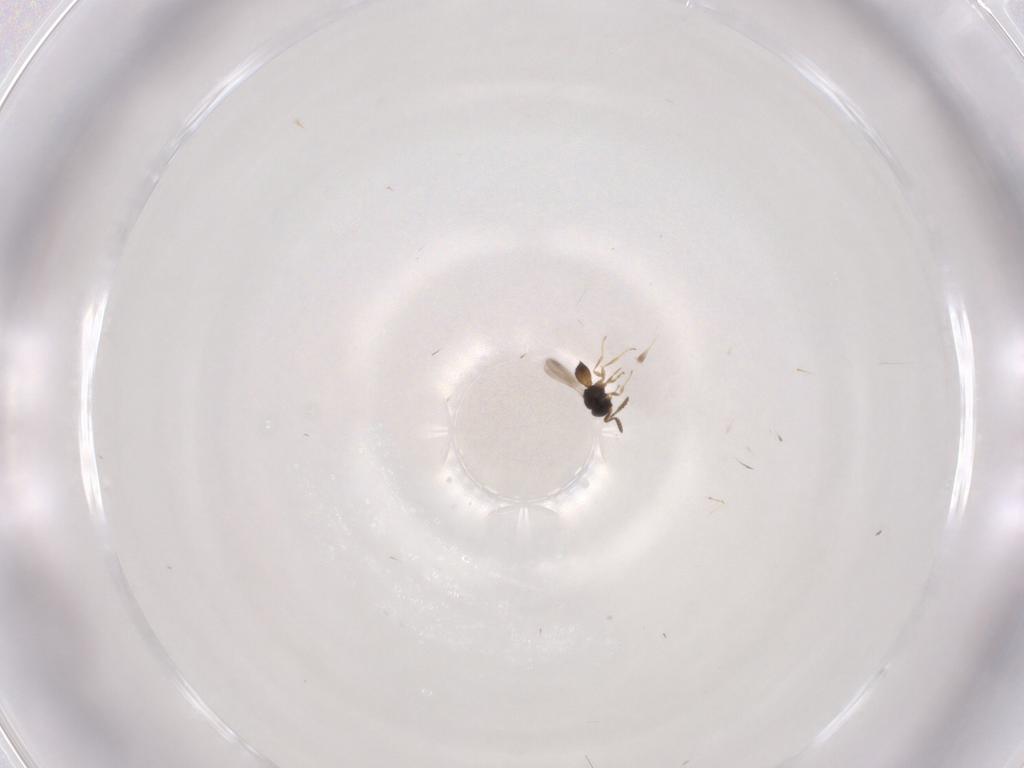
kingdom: Animalia
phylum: Arthropoda
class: Insecta
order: Hymenoptera
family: Scelionidae
